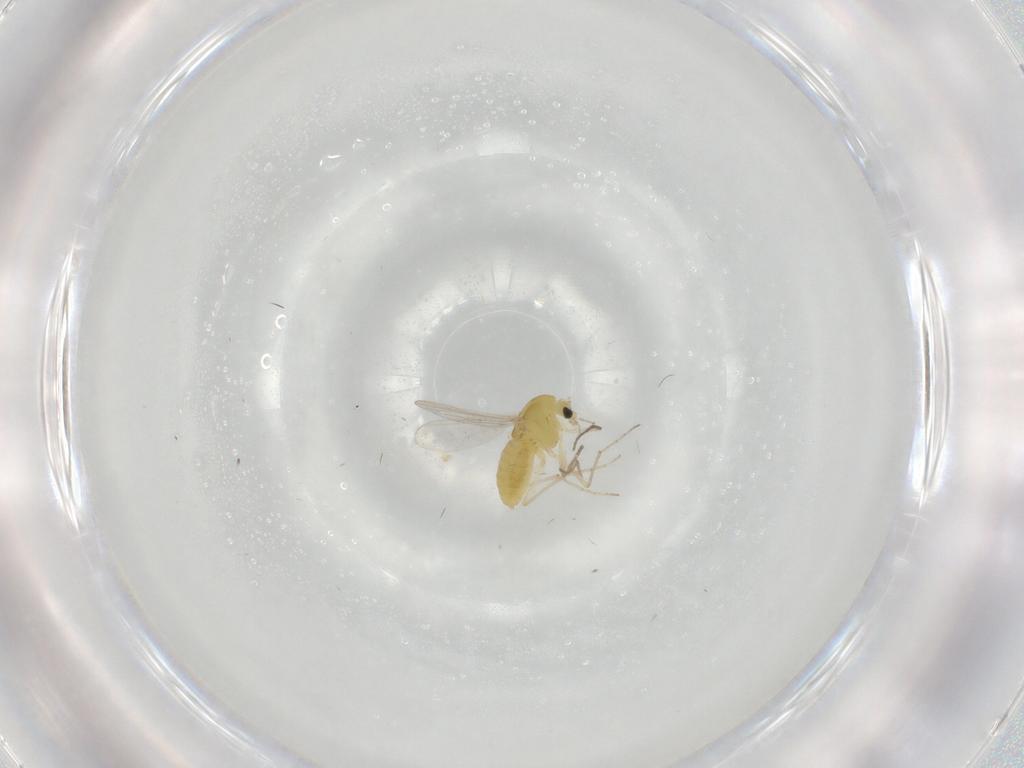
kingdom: Animalia
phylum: Arthropoda
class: Insecta
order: Diptera
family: Chironomidae
